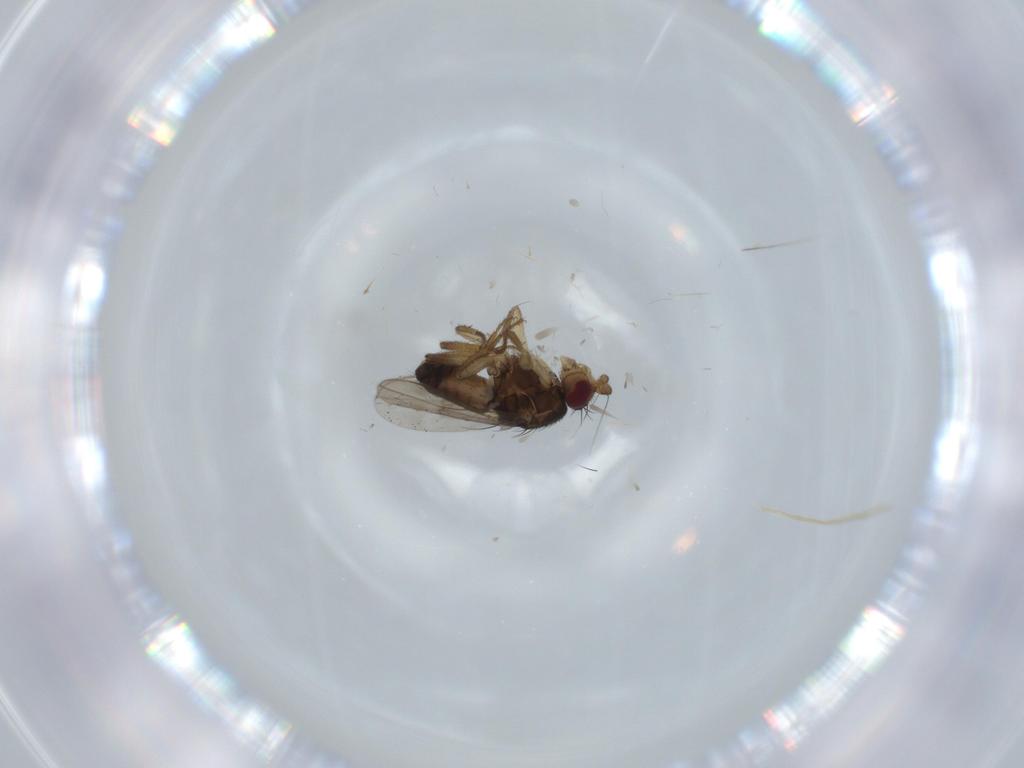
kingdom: Animalia
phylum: Arthropoda
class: Insecta
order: Diptera
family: Sphaeroceridae
